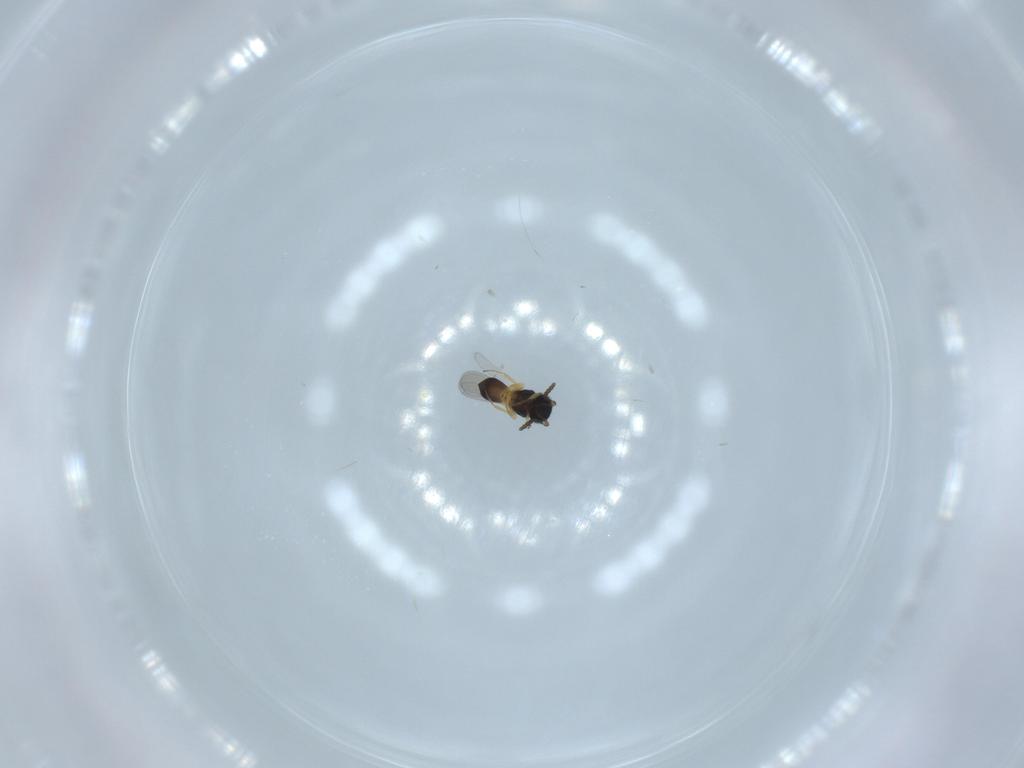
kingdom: Animalia
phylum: Arthropoda
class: Insecta
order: Hymenoptera
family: Scelionidae
